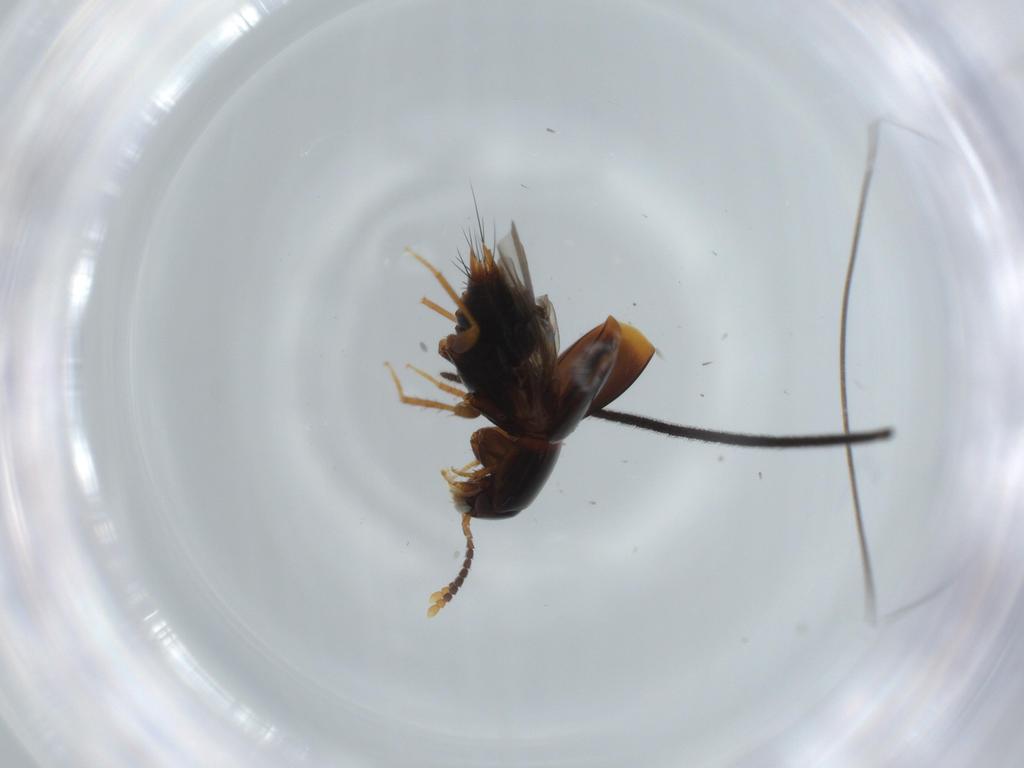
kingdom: Animalia
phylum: Arthropoda
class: Insecta
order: Coleoptera
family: Staphylinidae
